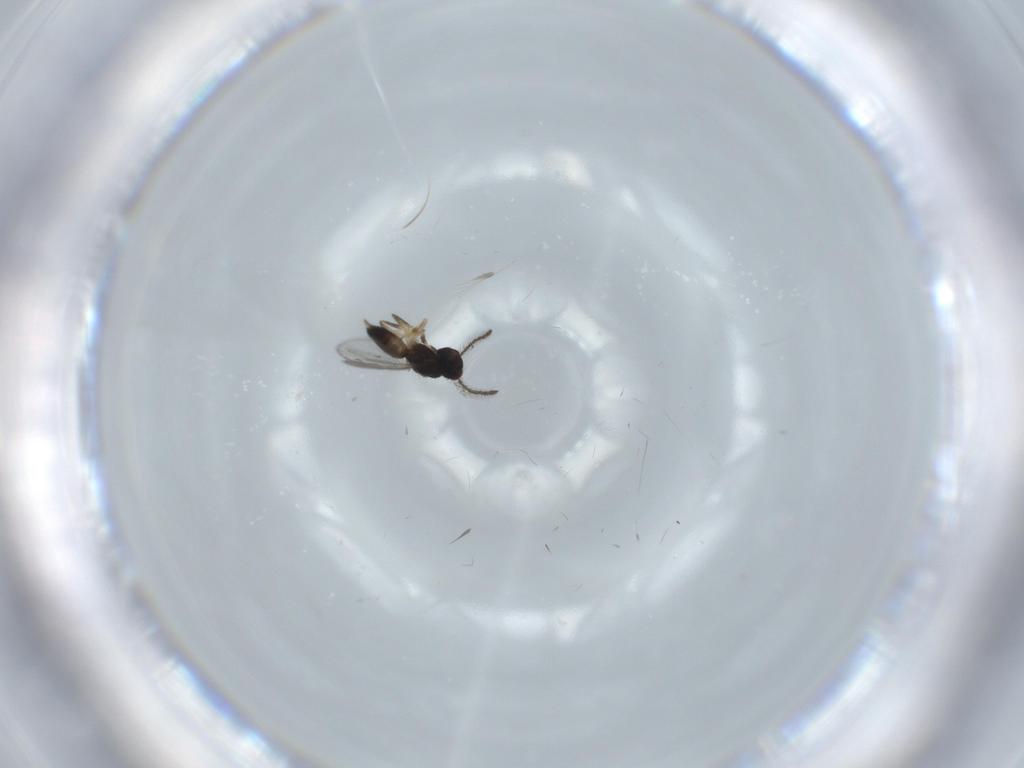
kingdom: Animalia
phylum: Arthropoda
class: Insecta
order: Hymenoptera
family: Eupelmidae
